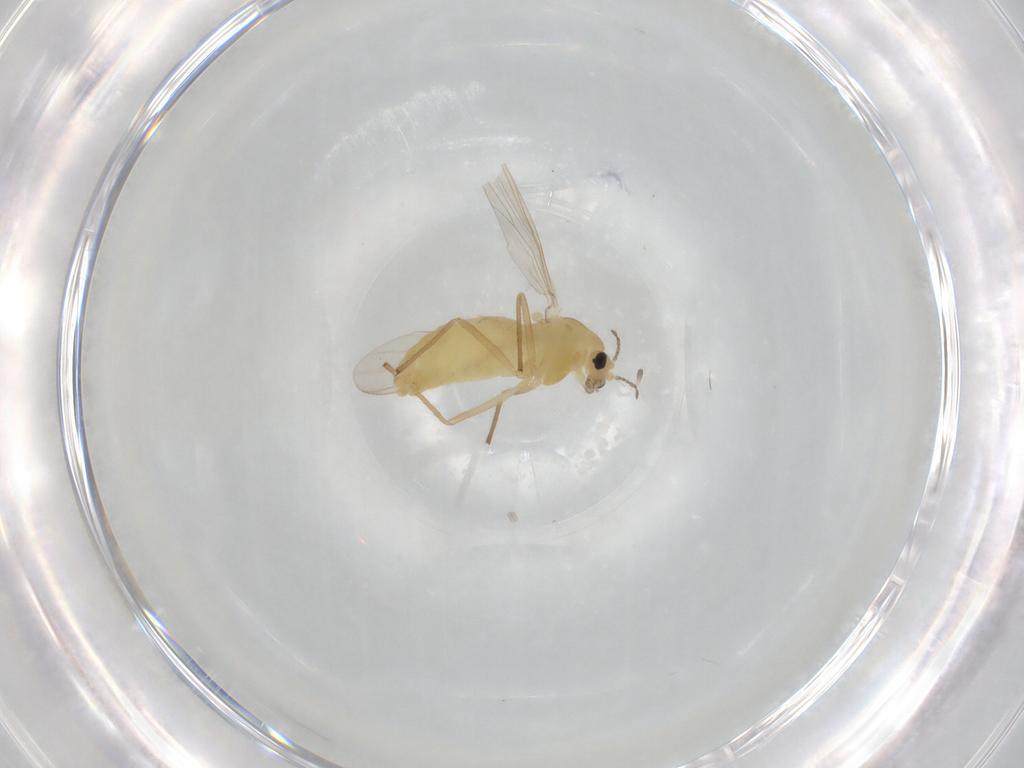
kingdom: Animalia
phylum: Arthropoda
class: Insecta
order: Diptera
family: Chironomidae
